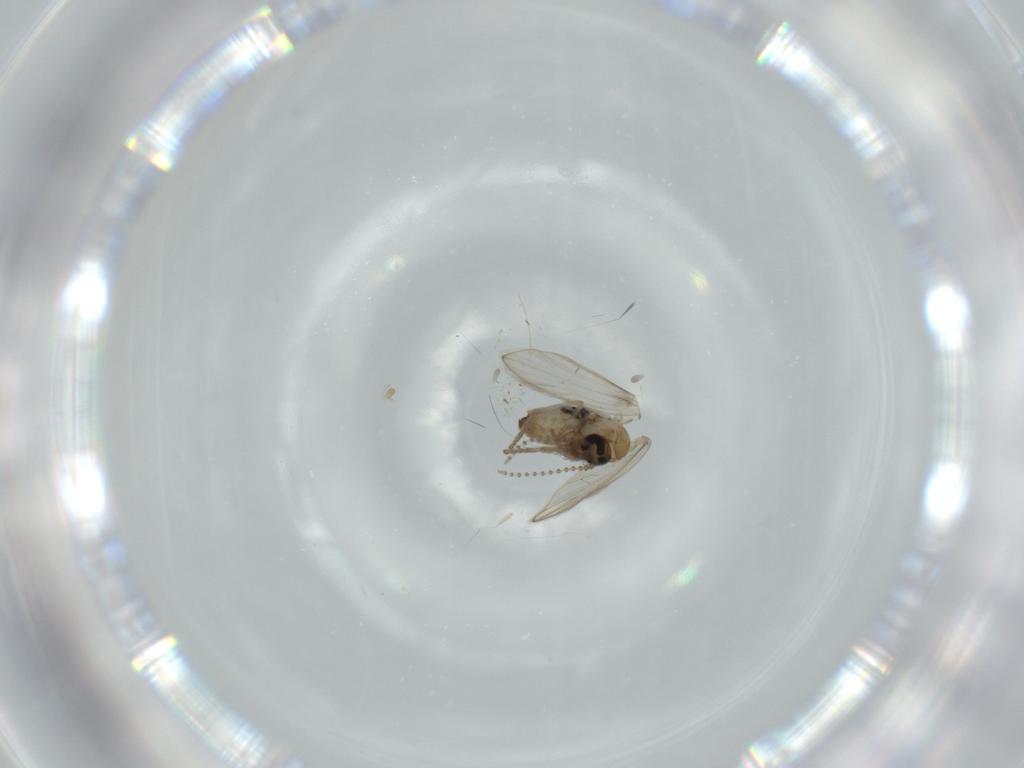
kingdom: Animalia
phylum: Arthropoda
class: Insecta
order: Diptera
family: Psychodidae
